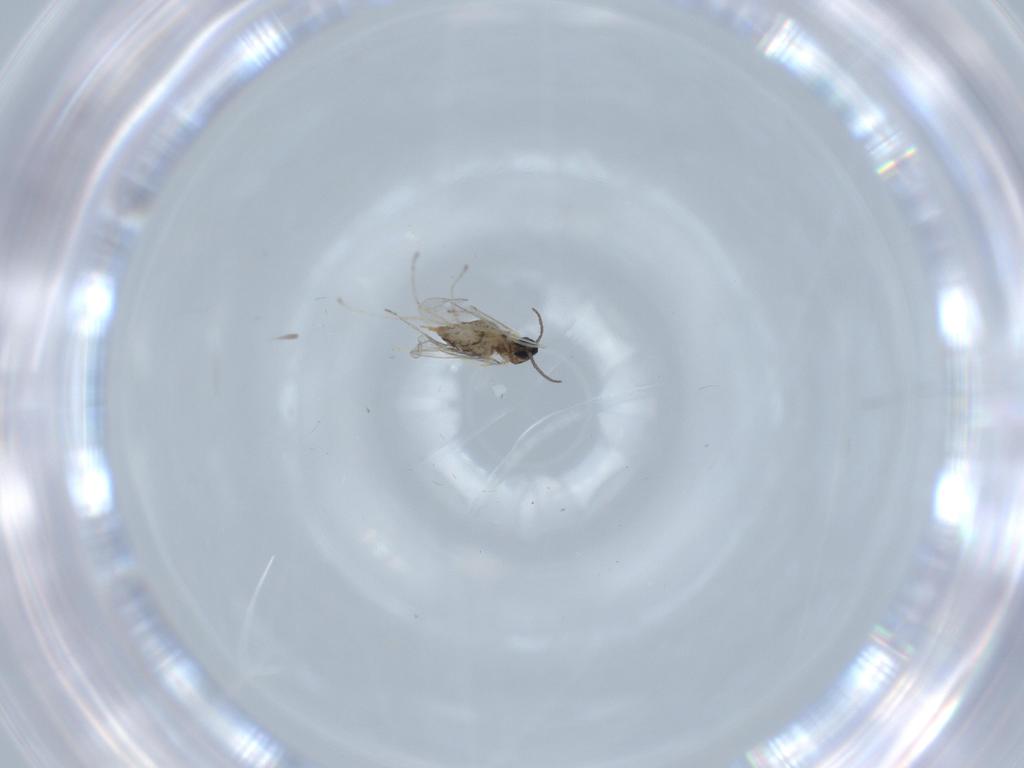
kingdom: Animalia
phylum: Arthropoda
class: Insecta
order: Diptera
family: Cecidomyiidae
